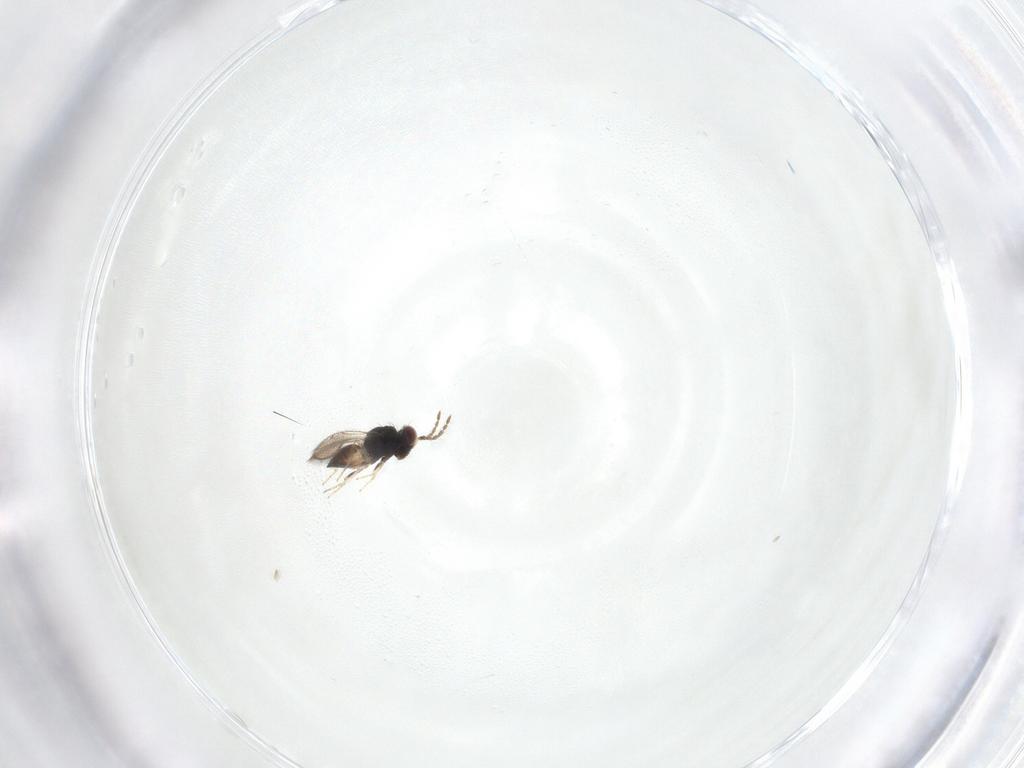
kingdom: Animalia
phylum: Arthropoda
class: Insecta
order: Hymenoptera
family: Eulophidae
